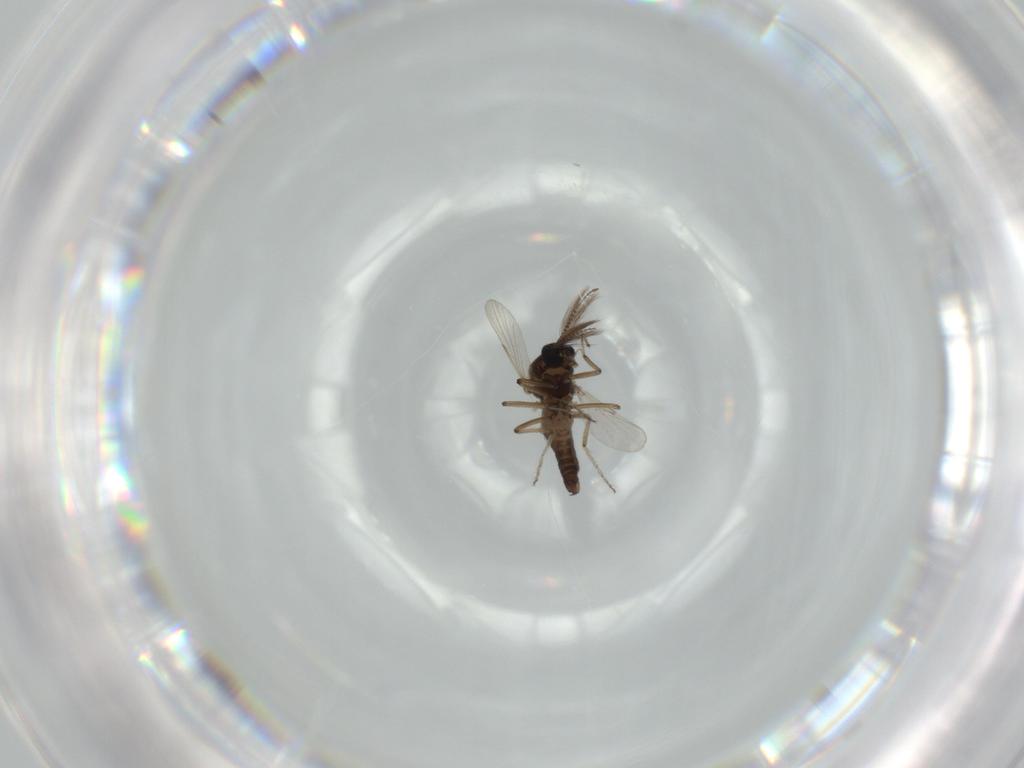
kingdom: Animalia
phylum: Arthropoda
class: Insecta
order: Diptera
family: Ceratopogonidae
